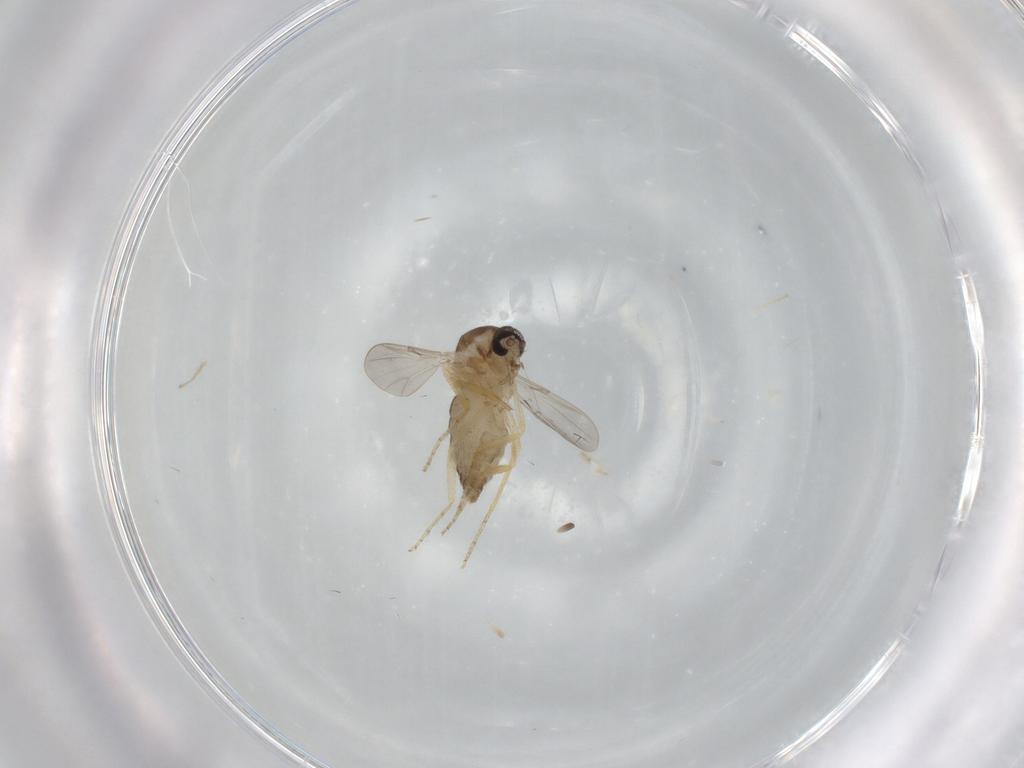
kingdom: Animalia
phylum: Arthropoda
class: Insecta
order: Diptera
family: Ceratopogonidae
